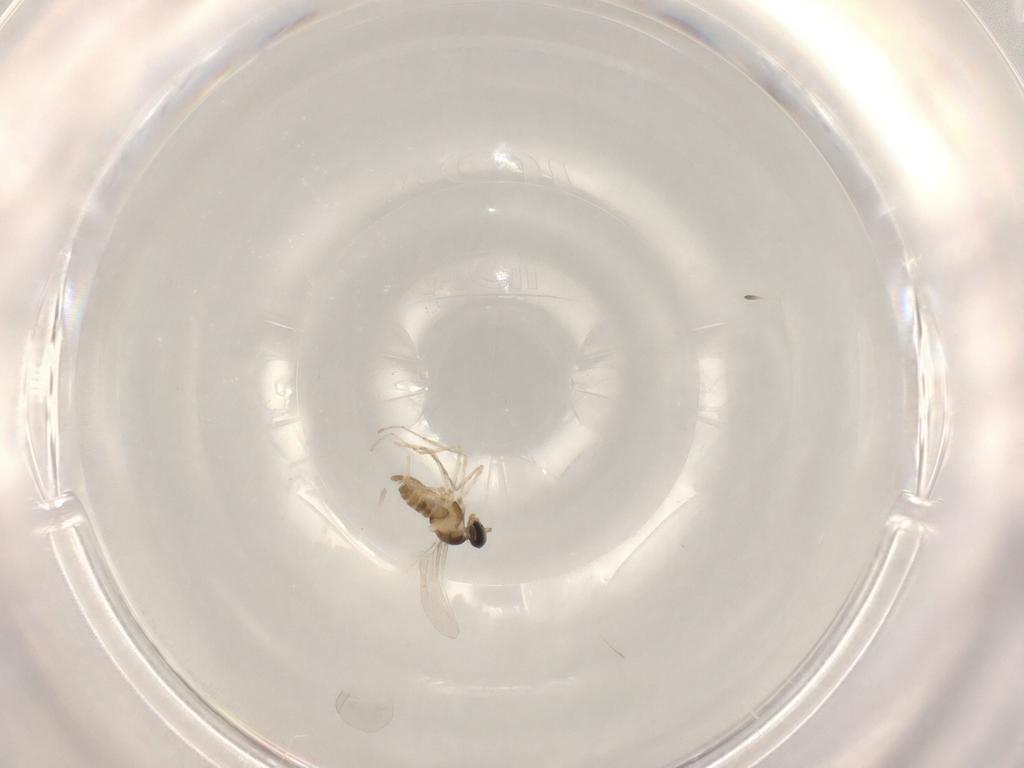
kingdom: Animalia
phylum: Arthropoda
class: Insecta
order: Diptera
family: Cecidomyiidae
